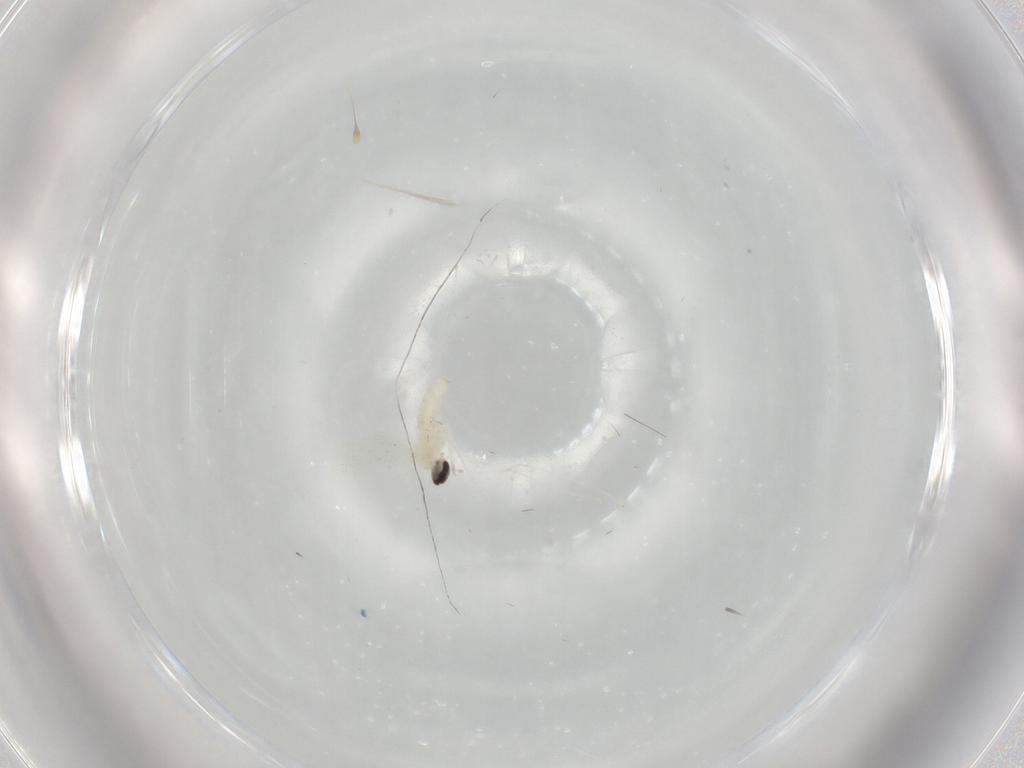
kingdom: Animalia
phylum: Arthropoda
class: Insecta
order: Diptera
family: Cecidomyiidae
